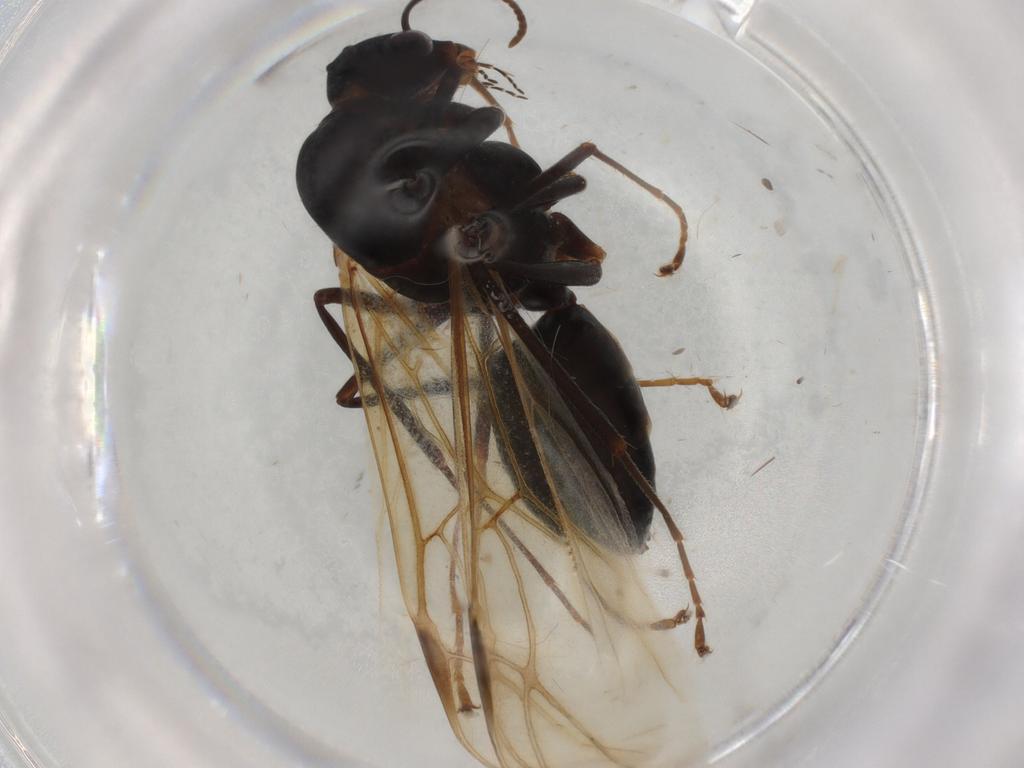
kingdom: Animalia
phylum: Arthropoda
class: Insecta
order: Hymenoptera
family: Formicidae
